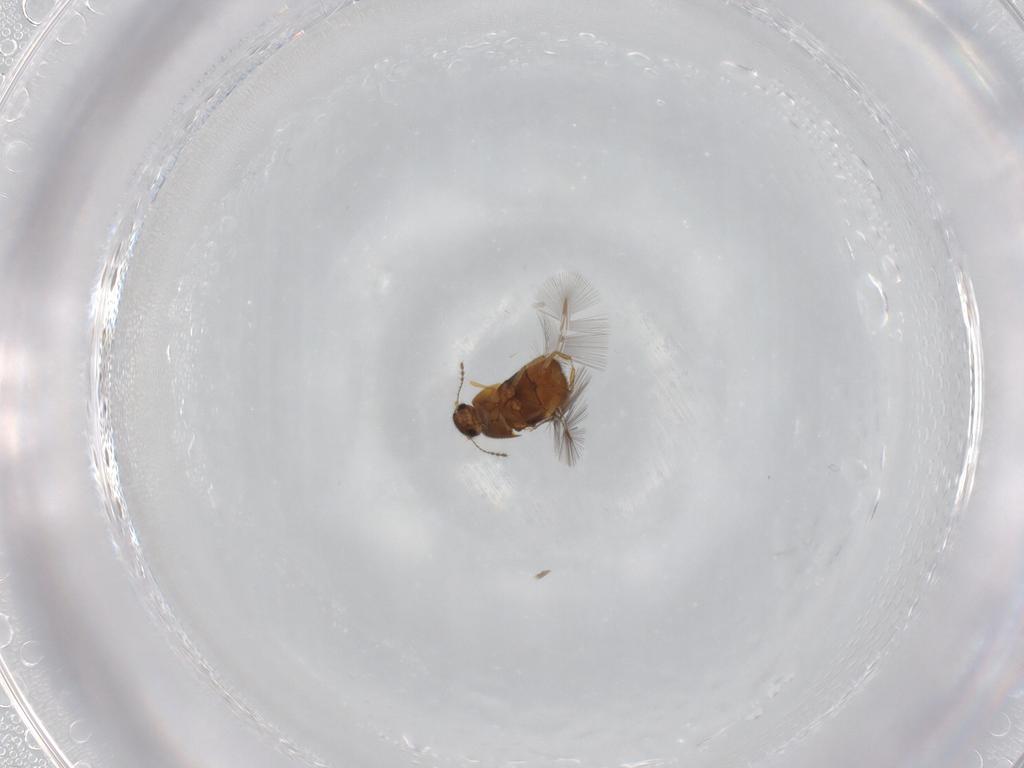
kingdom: Animalia
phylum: Arthropoda
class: Insecta
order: Coleoptera
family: Ptiliidae
